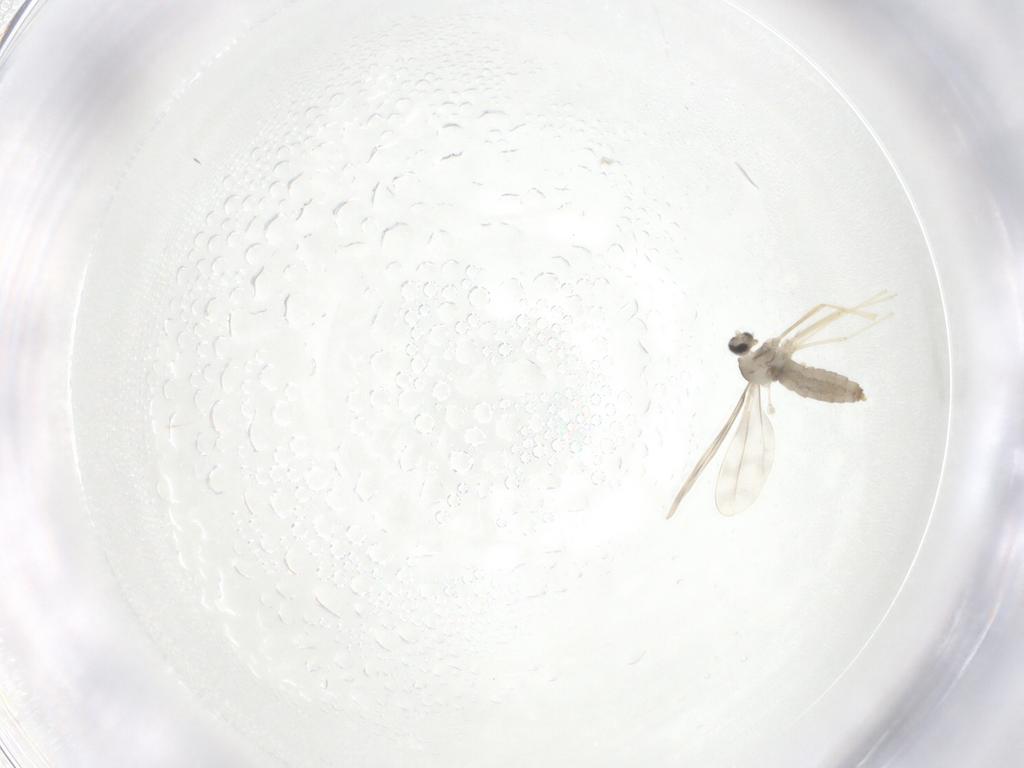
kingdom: Animalia
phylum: Arthropoda
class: Insecta
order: Diptera
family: Cecidomyiidae
